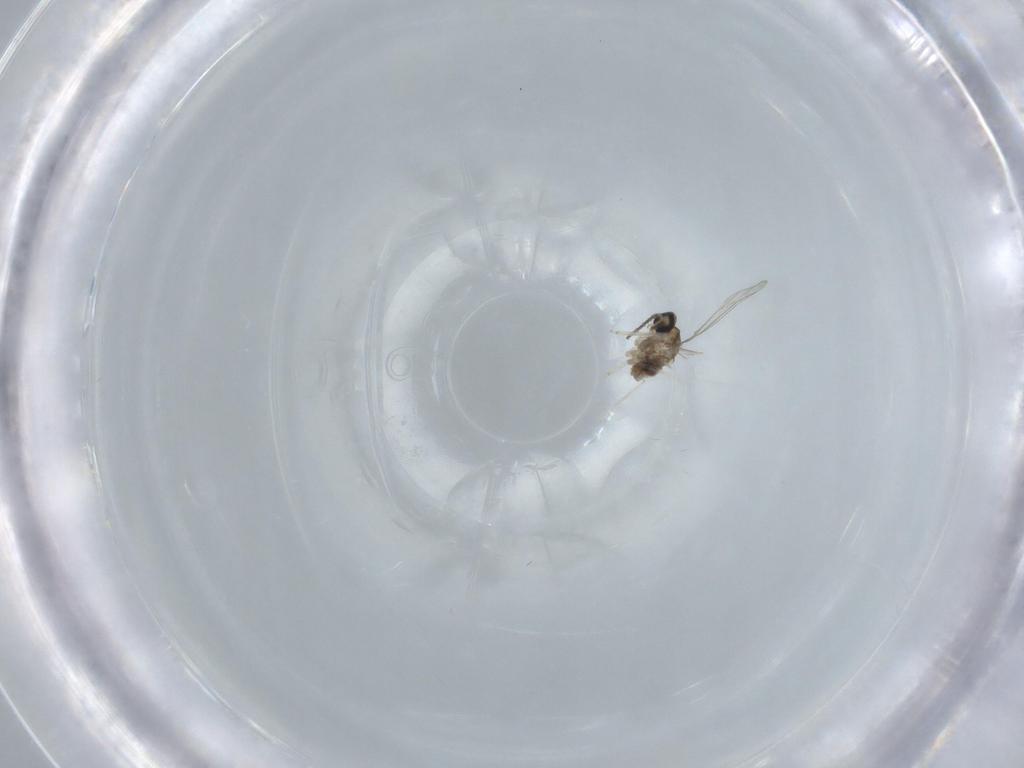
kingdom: Animalia
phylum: Arthropoda
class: Insecta
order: Diptera
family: Cecidomyiidae
